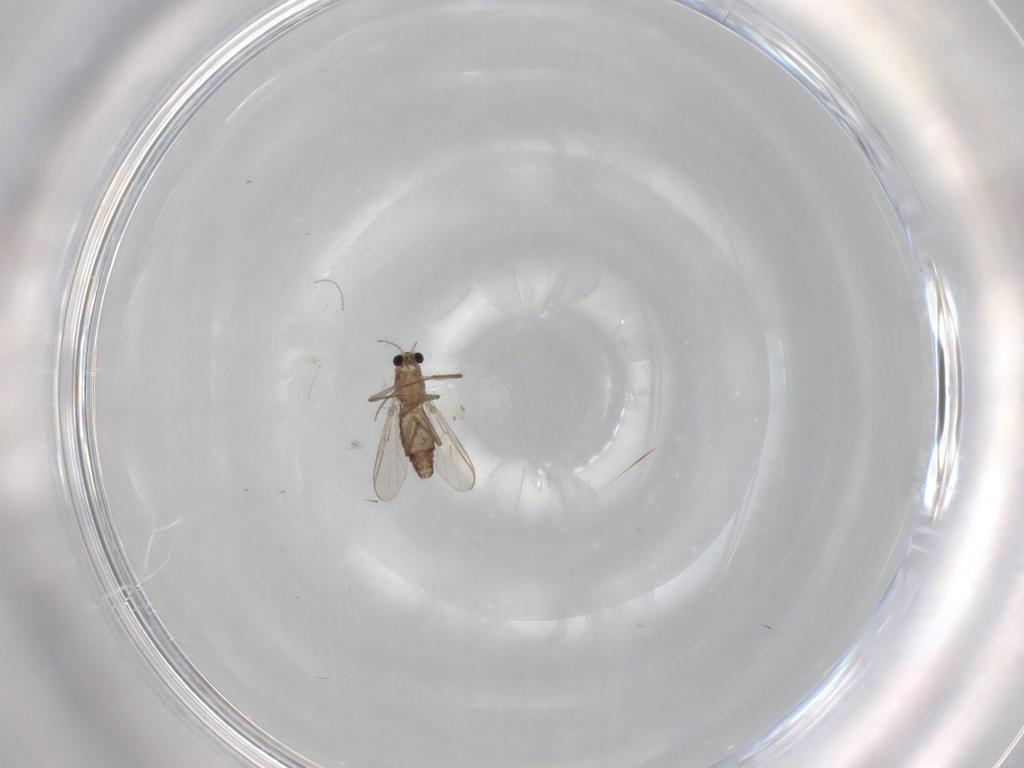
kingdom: Animalia
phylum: Arthropoda
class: Insecta
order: Diptera
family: Chironomidae
